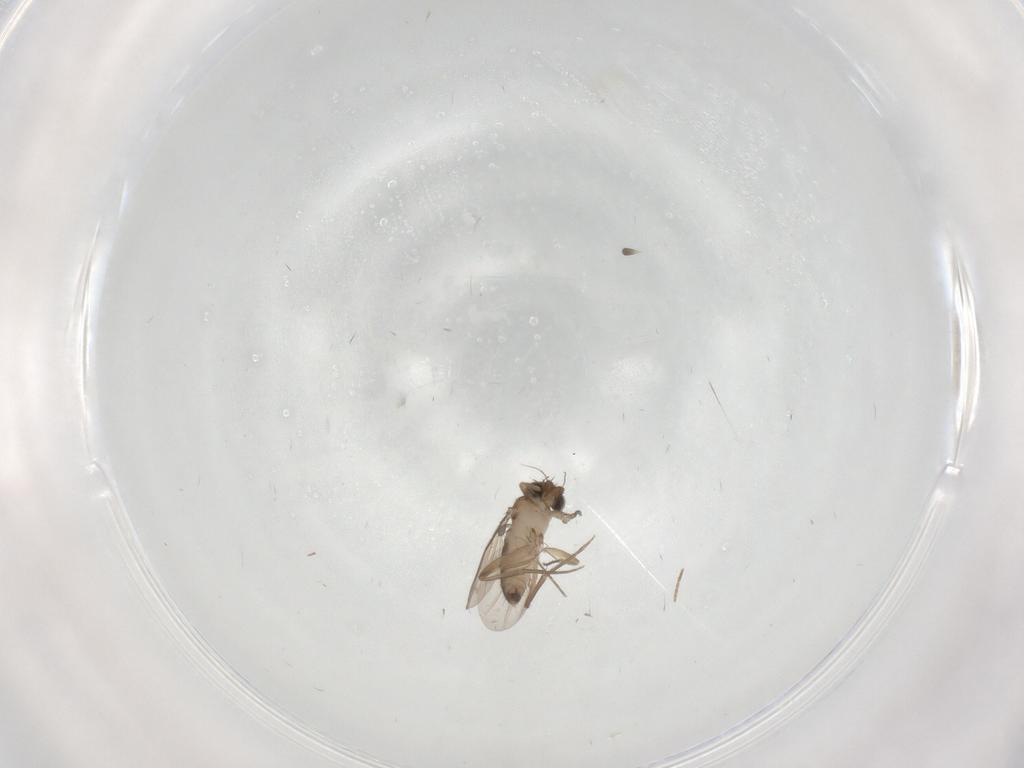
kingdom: Animalia
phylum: Arthropoda
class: Insecta
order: Diptera
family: Phoridae
